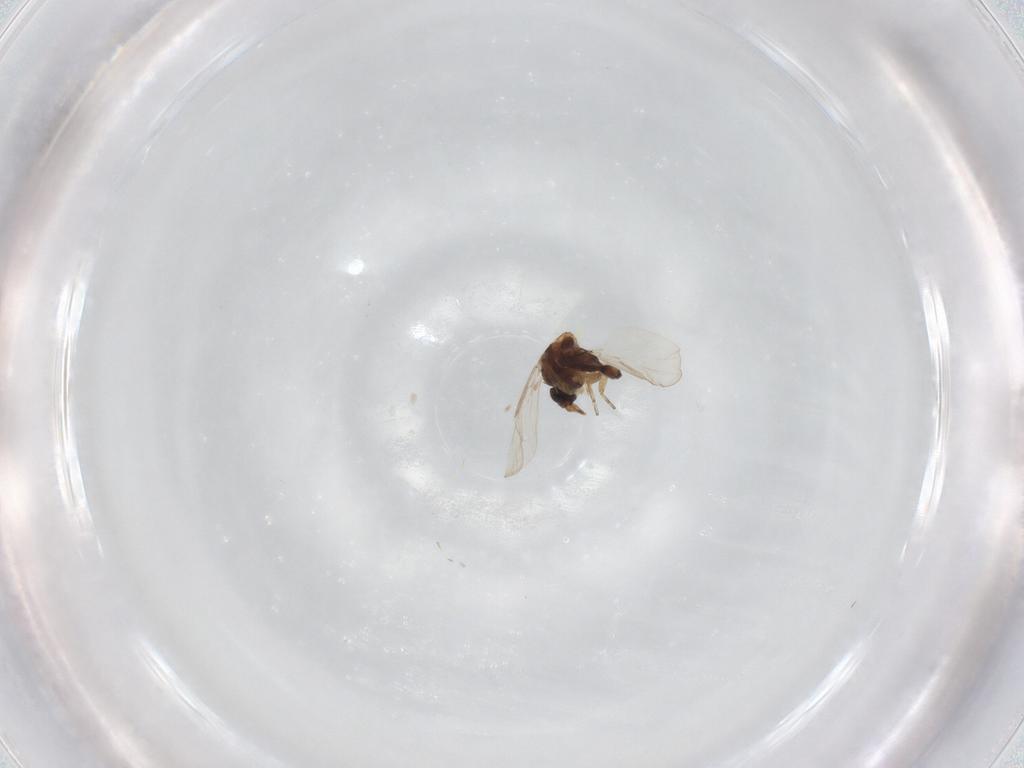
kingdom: Animalia
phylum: Arthropoda
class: Insecta
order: Diptera
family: Ceratopogonidae
